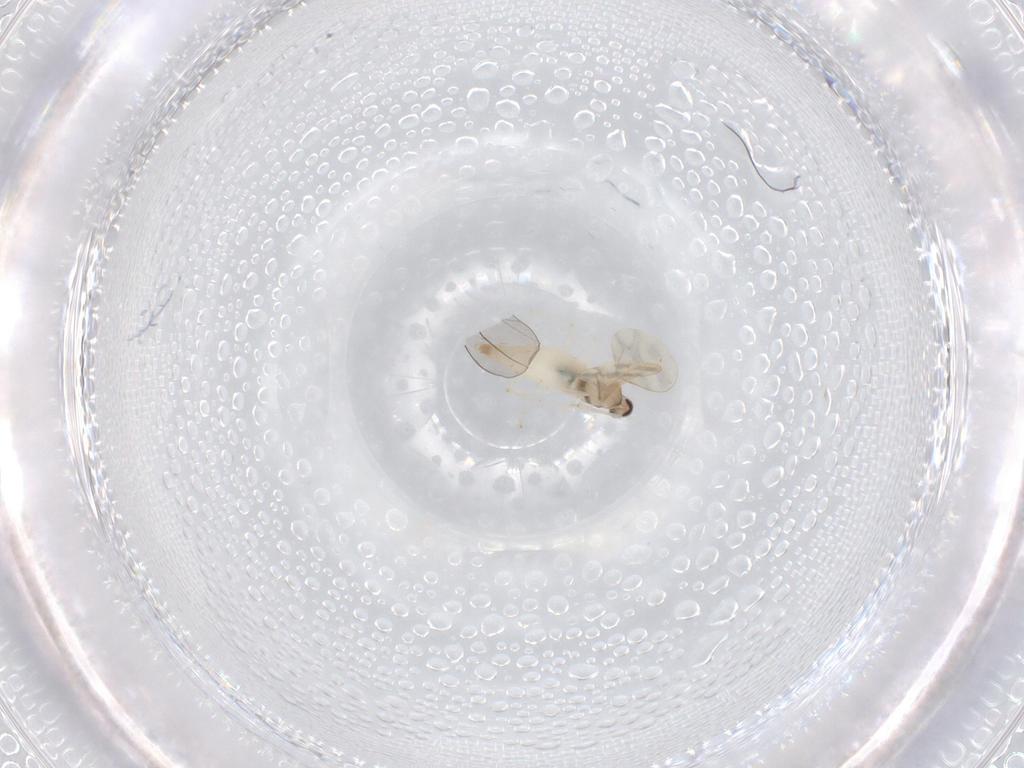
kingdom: Animalia
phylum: Arthropoda
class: Insecta
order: Diptera
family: Cecidomyiidae
